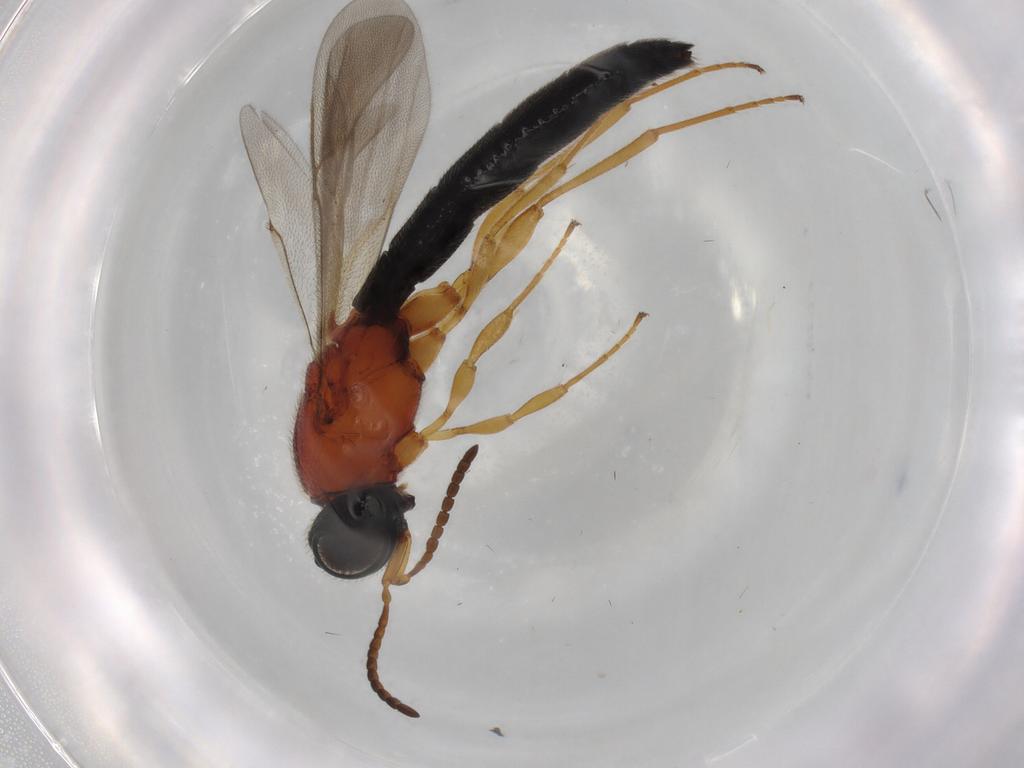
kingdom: Animalia
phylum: Arthropoda
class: Insecta
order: Hymenoptera
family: Scelionidae
